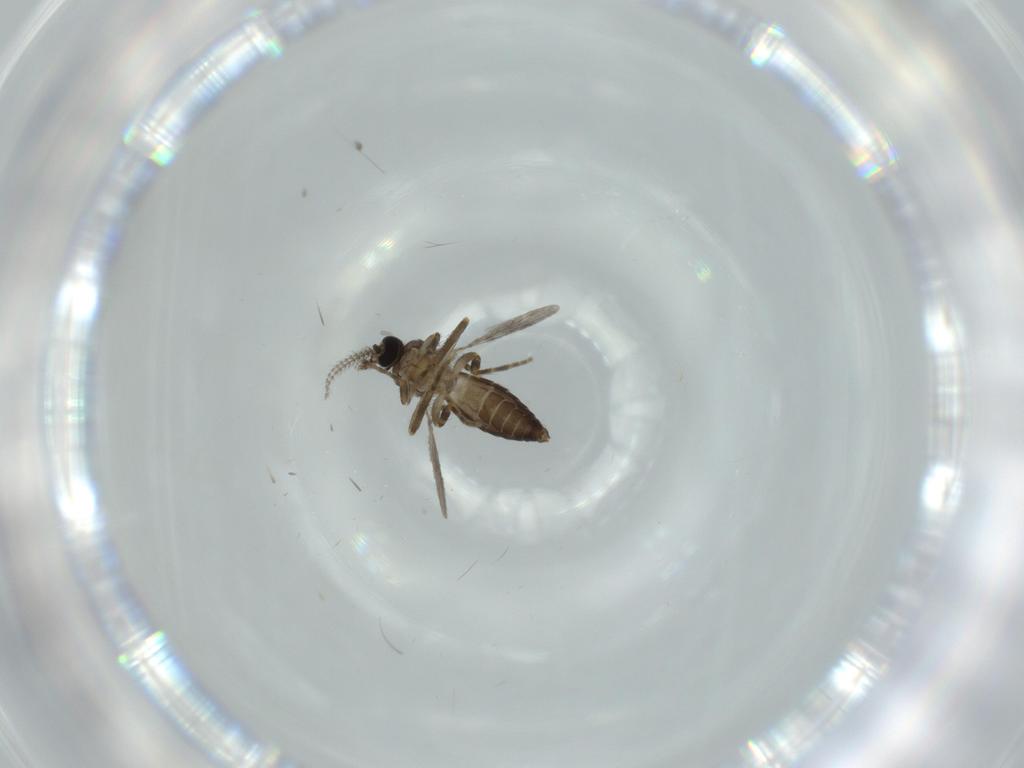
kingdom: Animalia
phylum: Arthropoda
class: Insecta
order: Diptera
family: Ceratopogonidae
